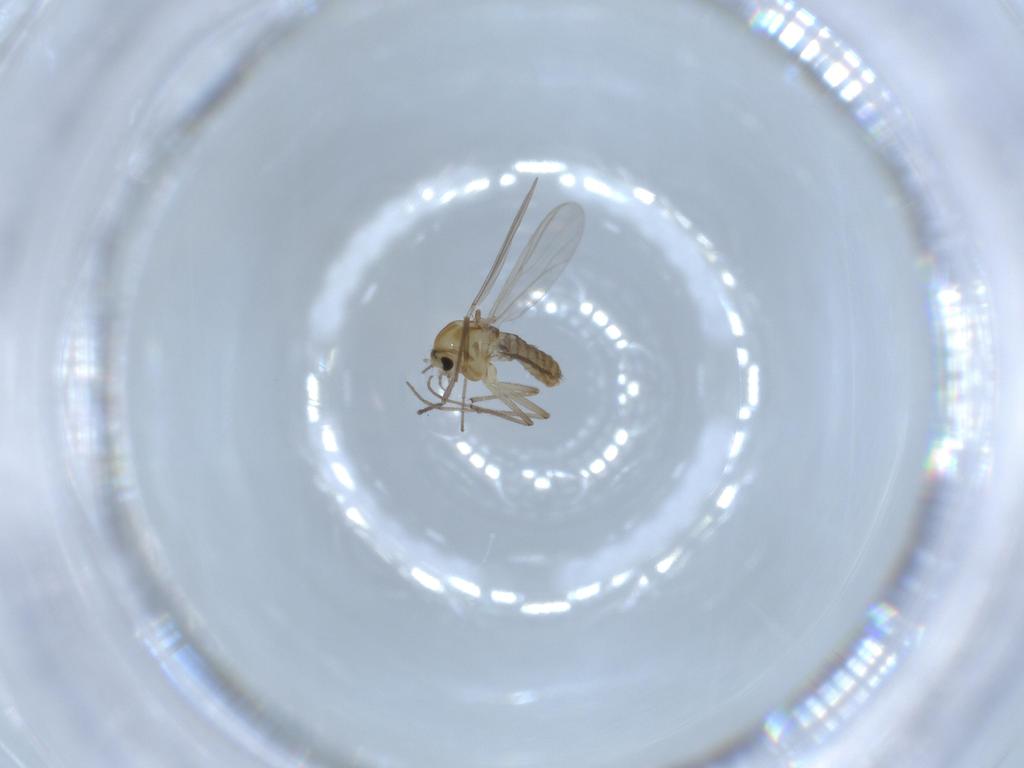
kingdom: Animalia
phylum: Arthropoda
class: Insecta
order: Diptera
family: Chironomidae
